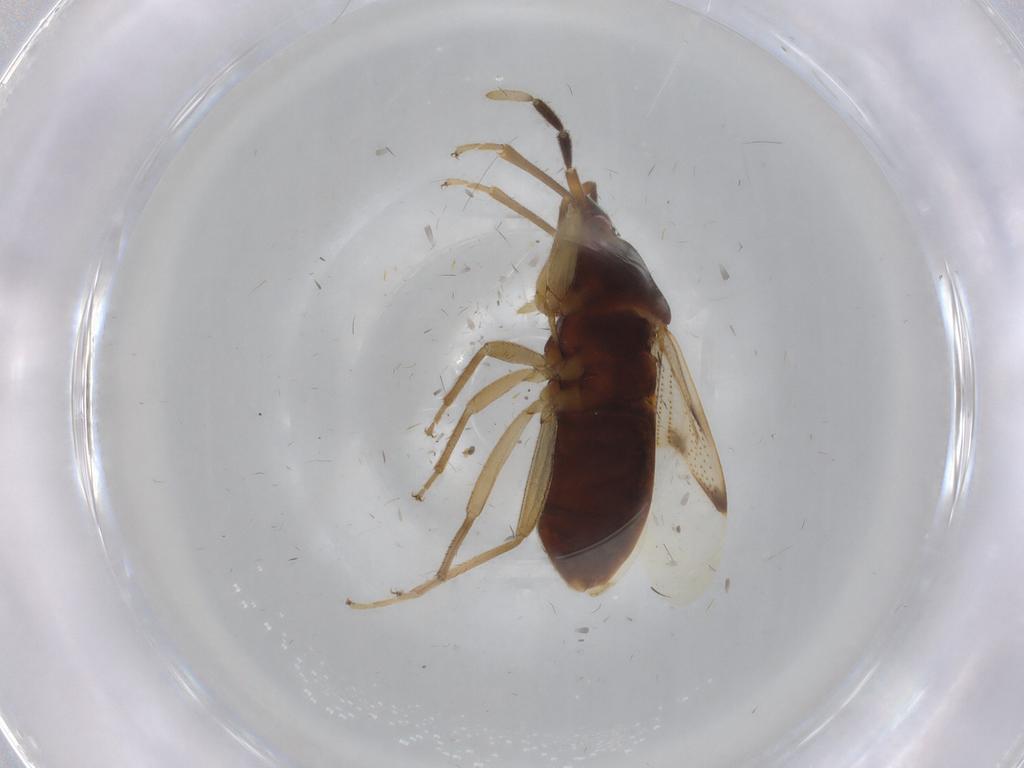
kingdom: Animalia
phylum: Arthropoda
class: Insecta
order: Hemiptera
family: Rhyparochromidae
